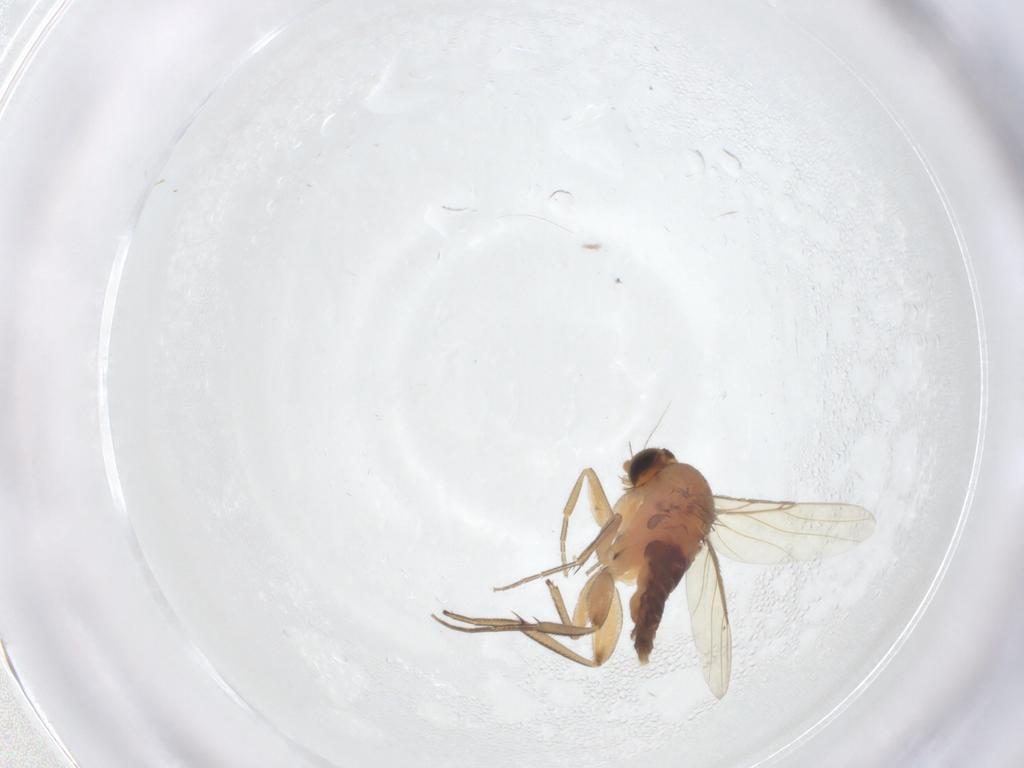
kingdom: Animalia
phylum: Arthropoda
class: Insecta
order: Diptera
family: Phoridae
